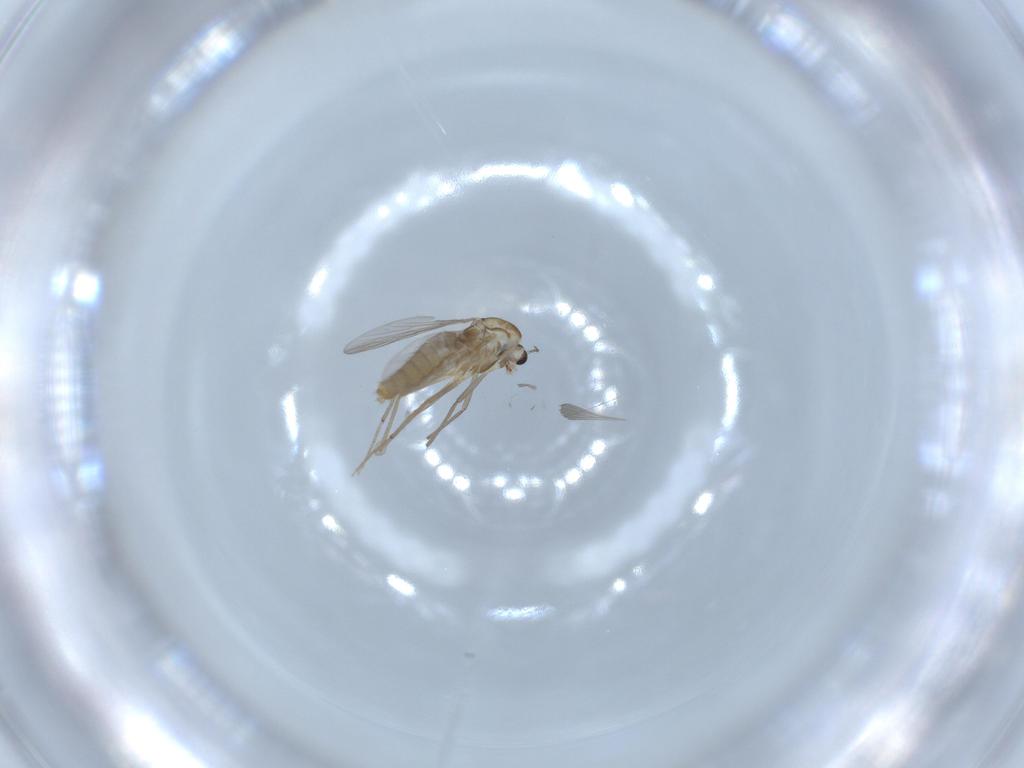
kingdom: Animalia
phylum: Arthropoda
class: Insecta
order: Diptera
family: Chironomidae
